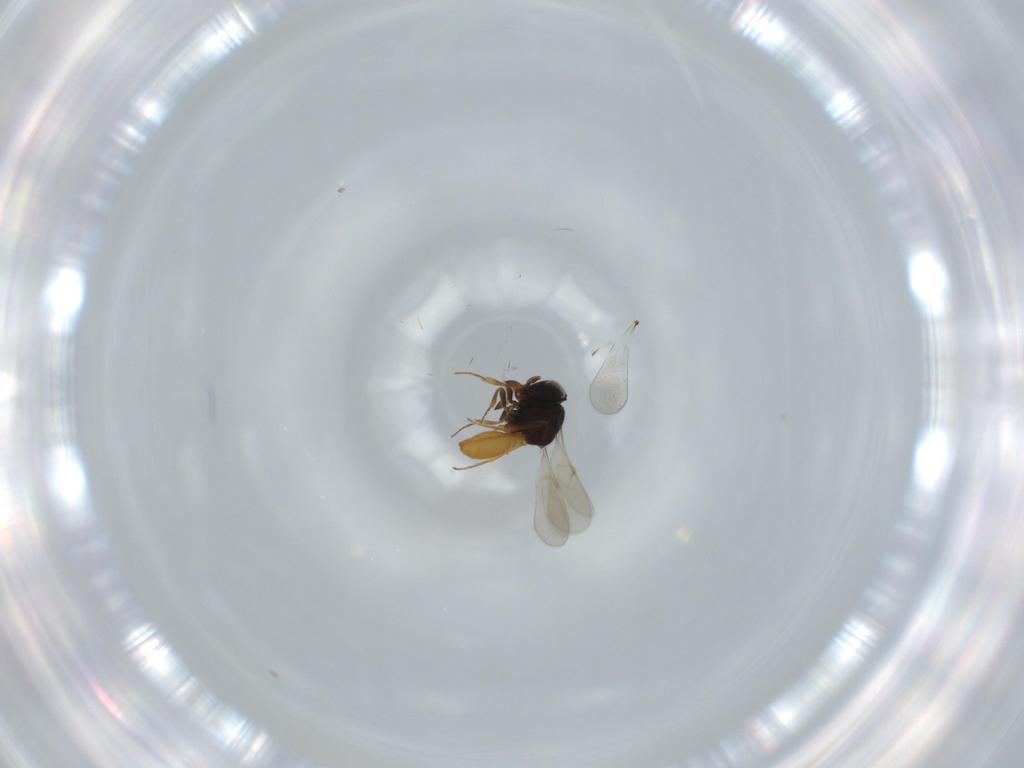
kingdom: Animalia
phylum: Arthropoda
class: Insecta
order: Hymenoptera
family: Scelionidae
